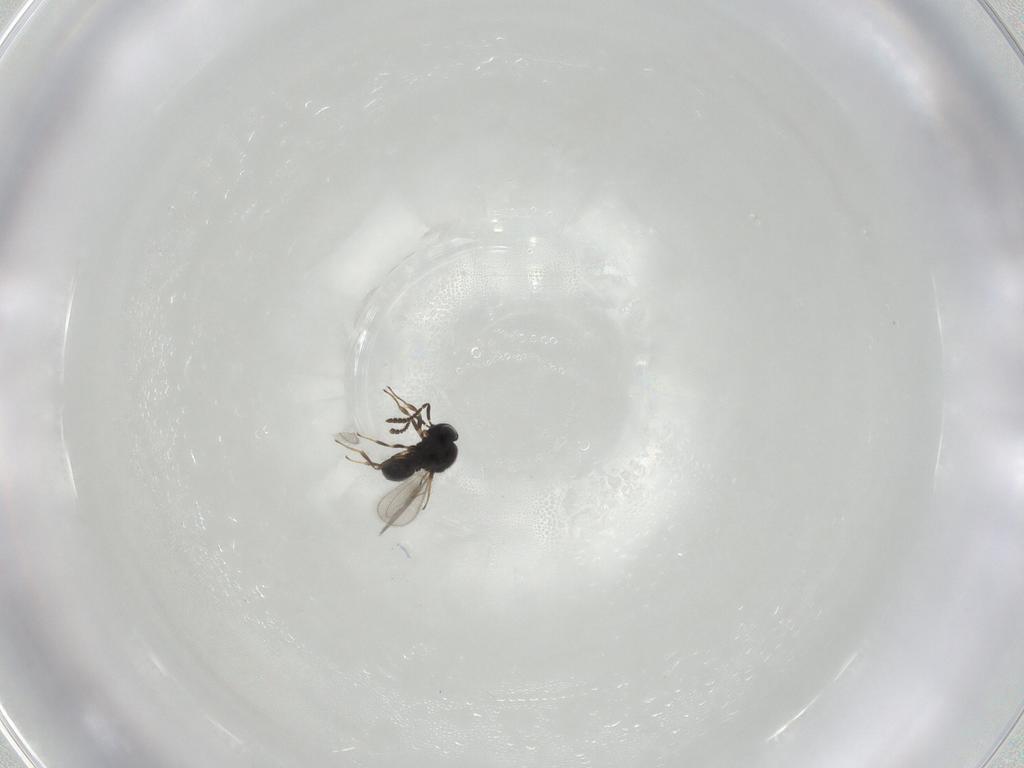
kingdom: Animalia
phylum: Arthropoda
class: Insecta
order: Hymenoptera
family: Scelionidae
